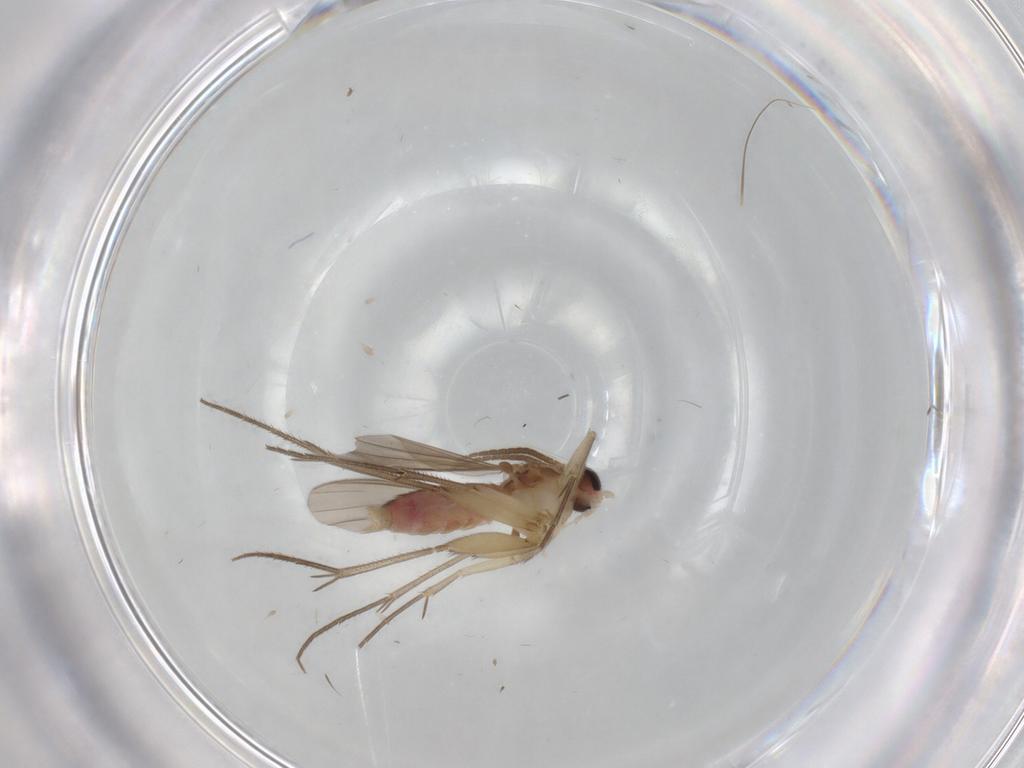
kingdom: Animalia
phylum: Arthropoda
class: Insecta
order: Diptera
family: Mycetophilidae
